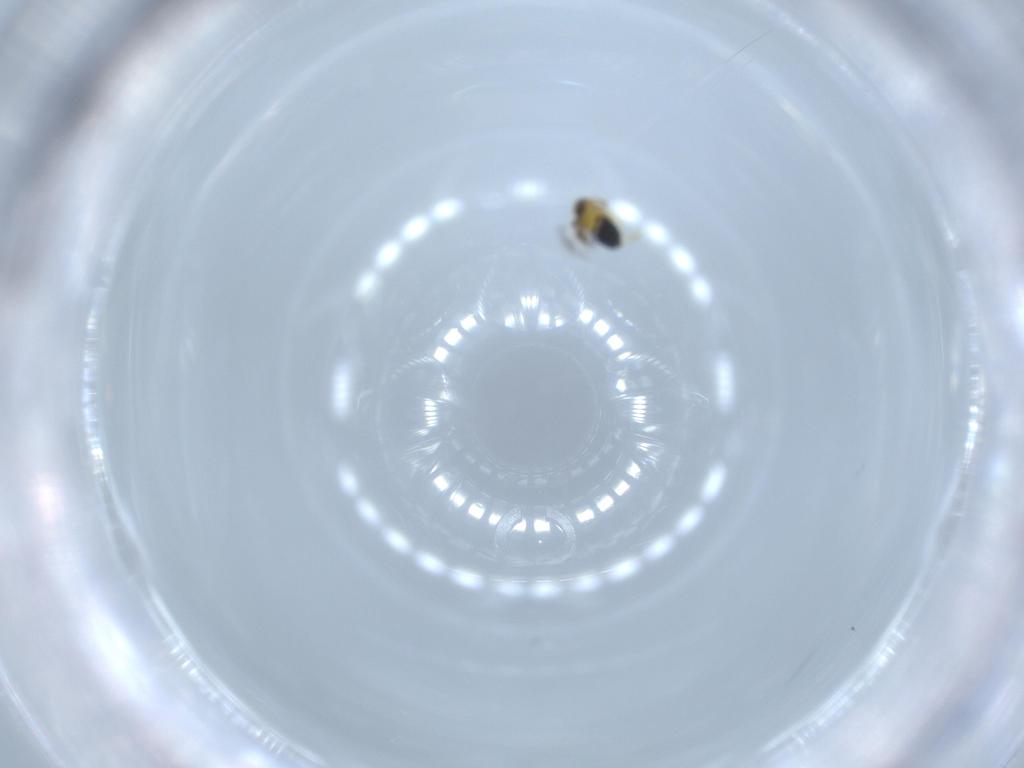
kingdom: Animalia
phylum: Arthropoda
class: Insecta
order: Hymenoptera
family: Signiphoridae
